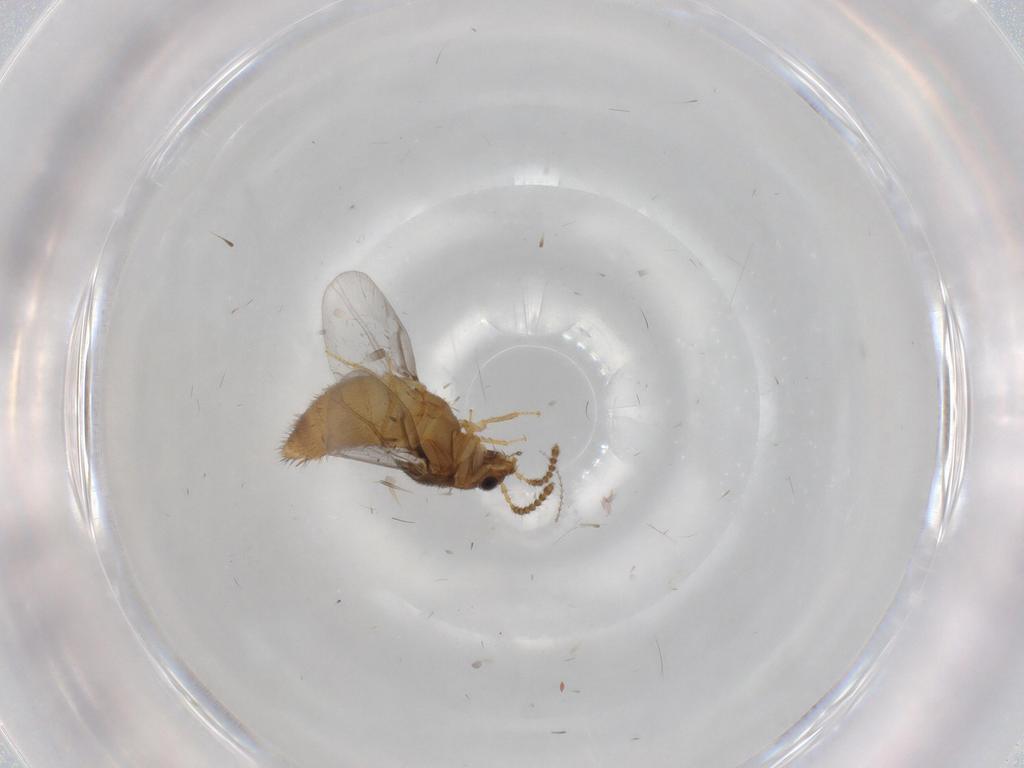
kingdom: Animalia
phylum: Arthropoda
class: Insecta
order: Coleoptera
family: Staphylinidae
